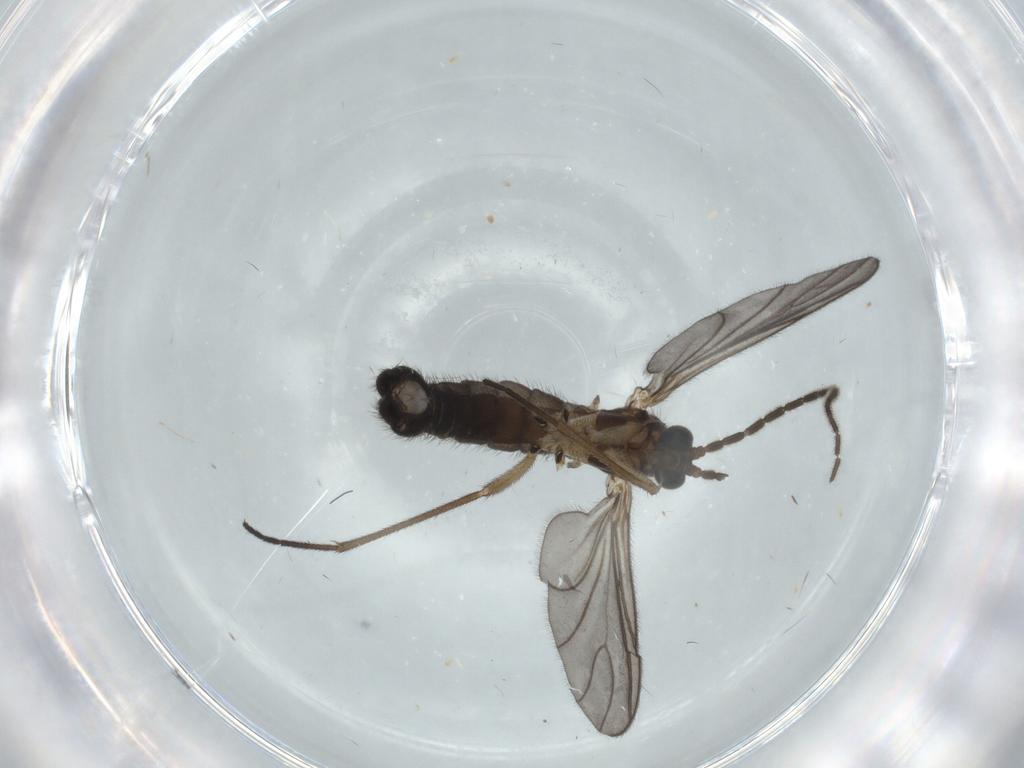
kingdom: Animalia
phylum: Arthropoda
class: Insecta
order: Diptera
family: Sciaridae
